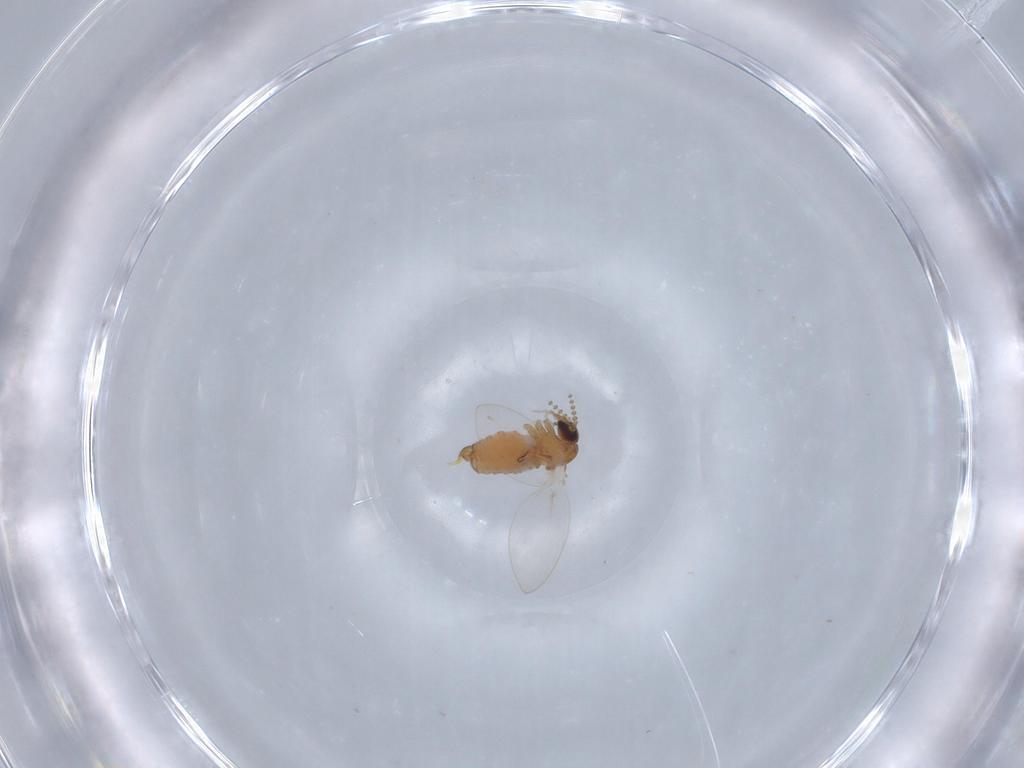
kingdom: Animalia
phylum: Arthropoda
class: Insecta
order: Diptera
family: Psychodidae
